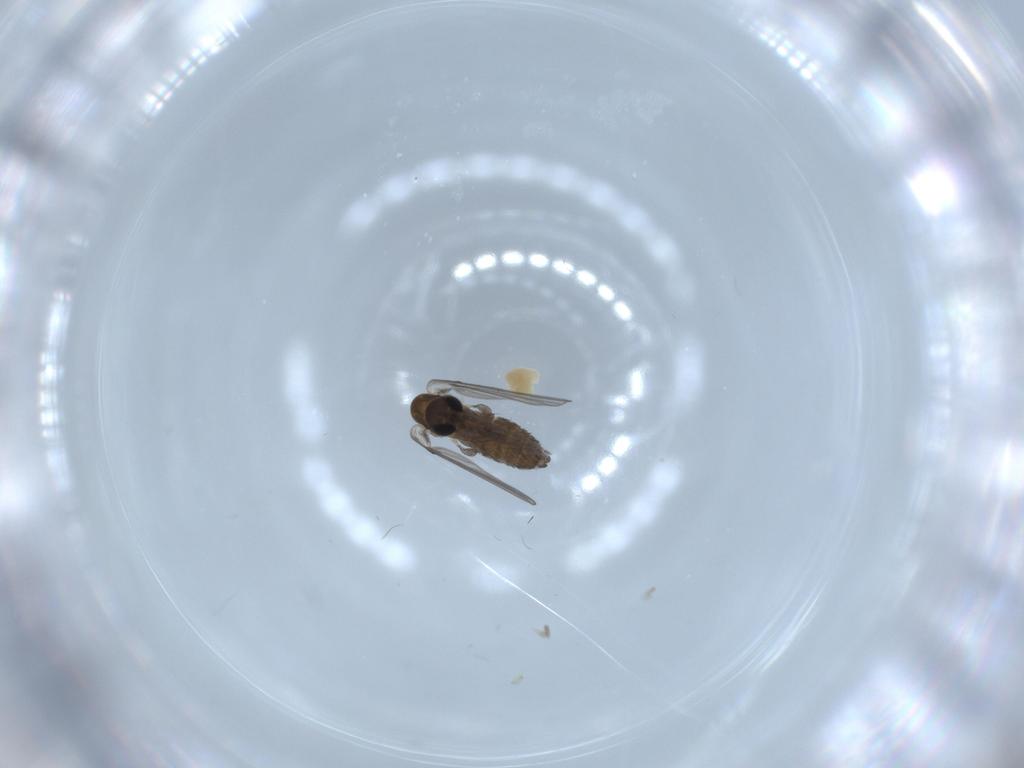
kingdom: Animalia
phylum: Arthropoda
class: Insecta
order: Diptera
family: Psychodidae
